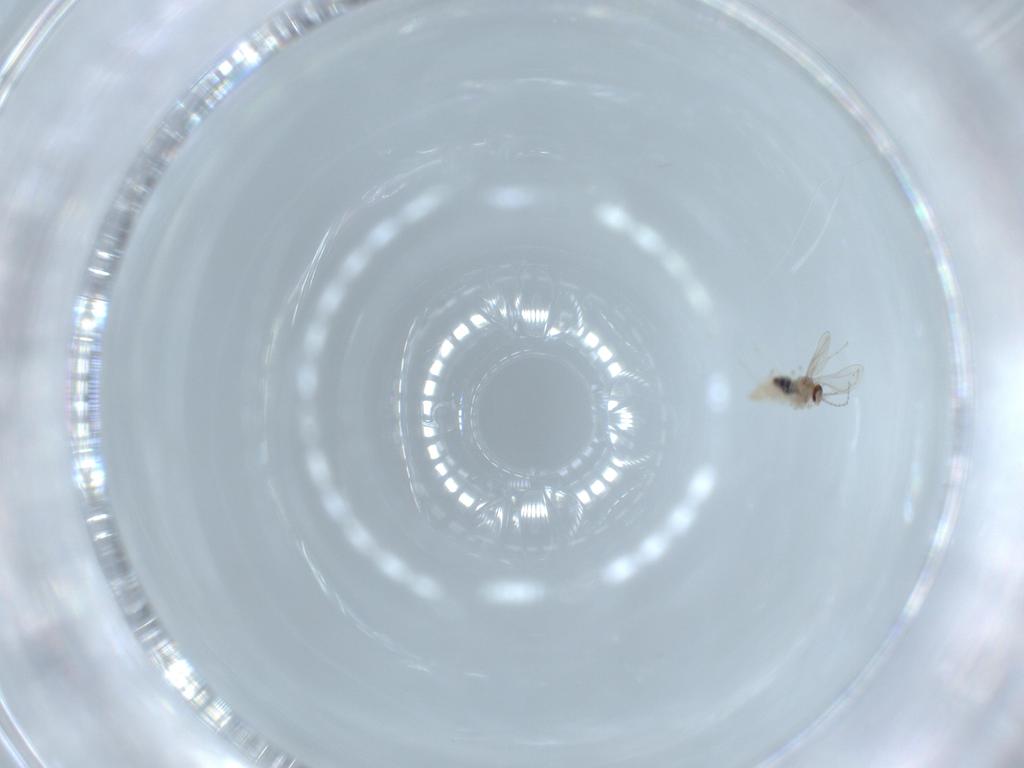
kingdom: Animalia
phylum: Arthropoda
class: Insecta
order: Diptera
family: Cecidomyiidae
